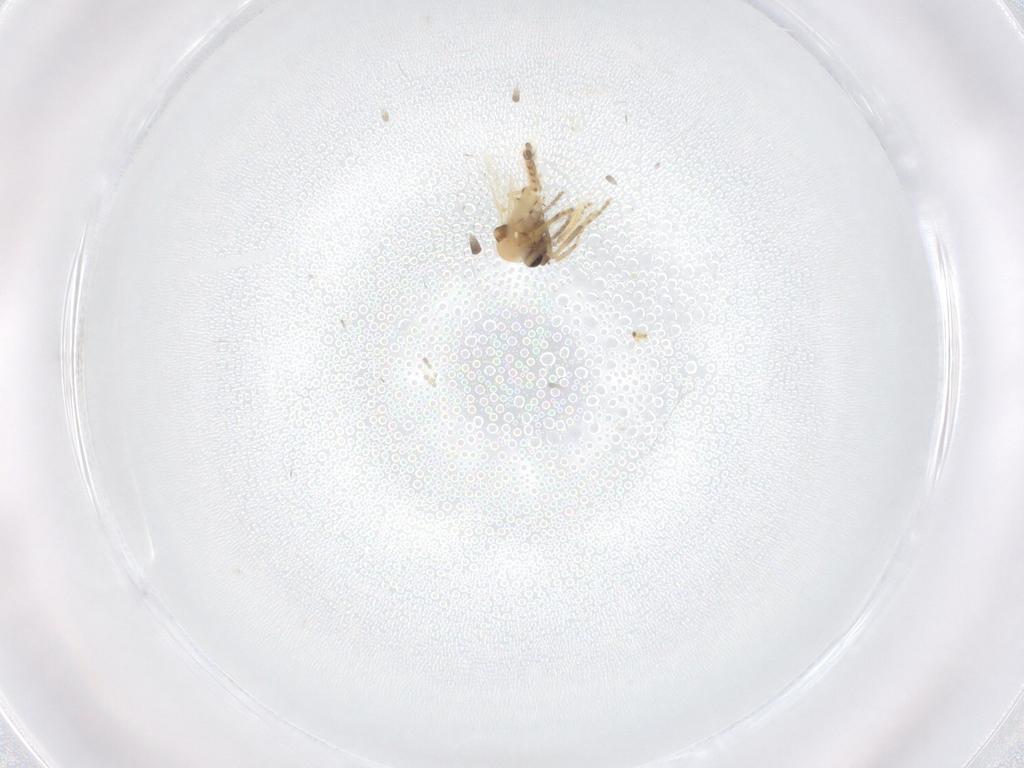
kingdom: Animalia
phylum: Arthropoda
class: Insecta
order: Diptera
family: Ceratopogonidae
